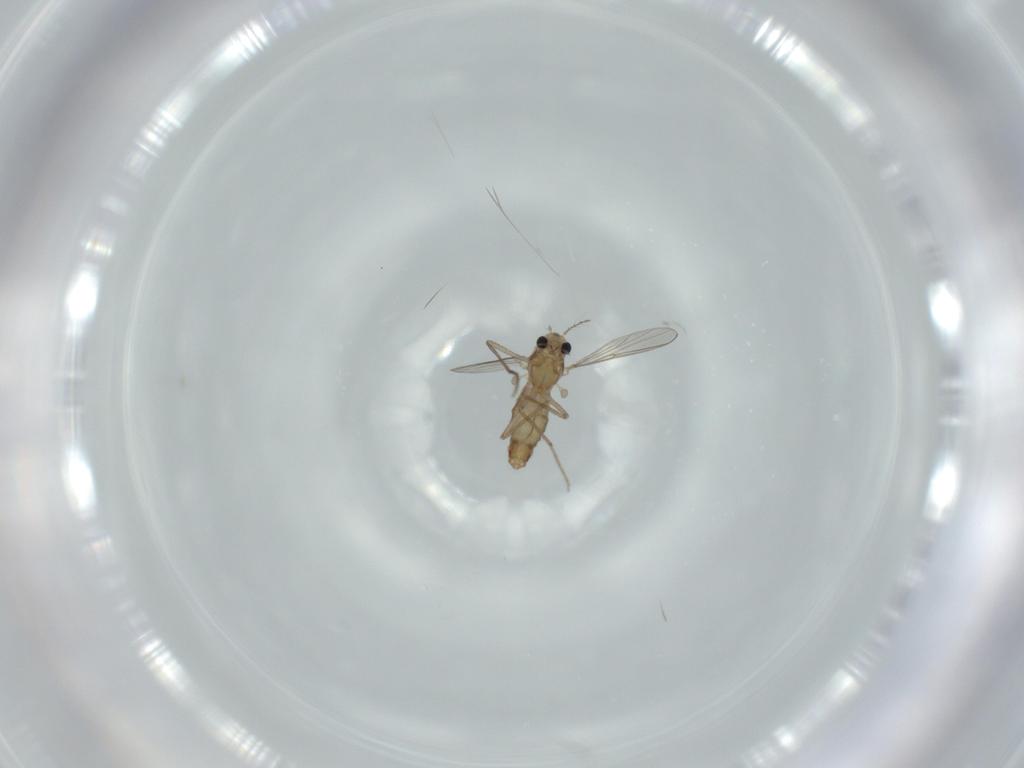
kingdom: Animalia
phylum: Arthropoda
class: Insecta
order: Diptera
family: Chironomidae
